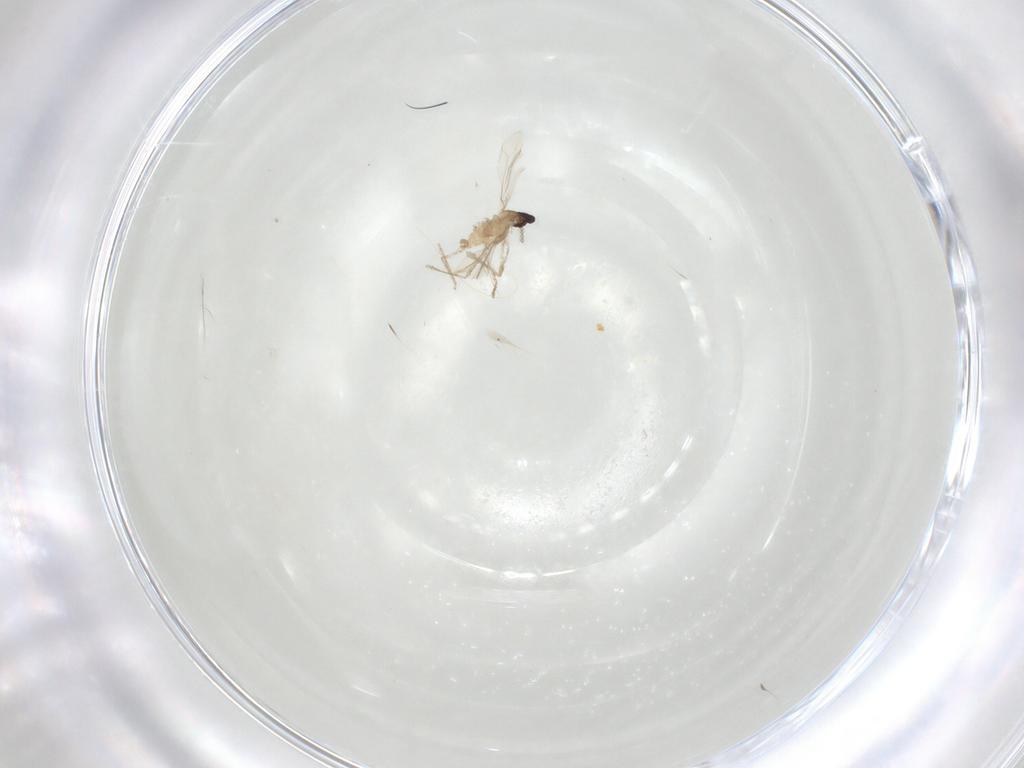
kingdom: Animalia
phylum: Arthropoda
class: Insecta
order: Diptera
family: Cecidomyiidae
